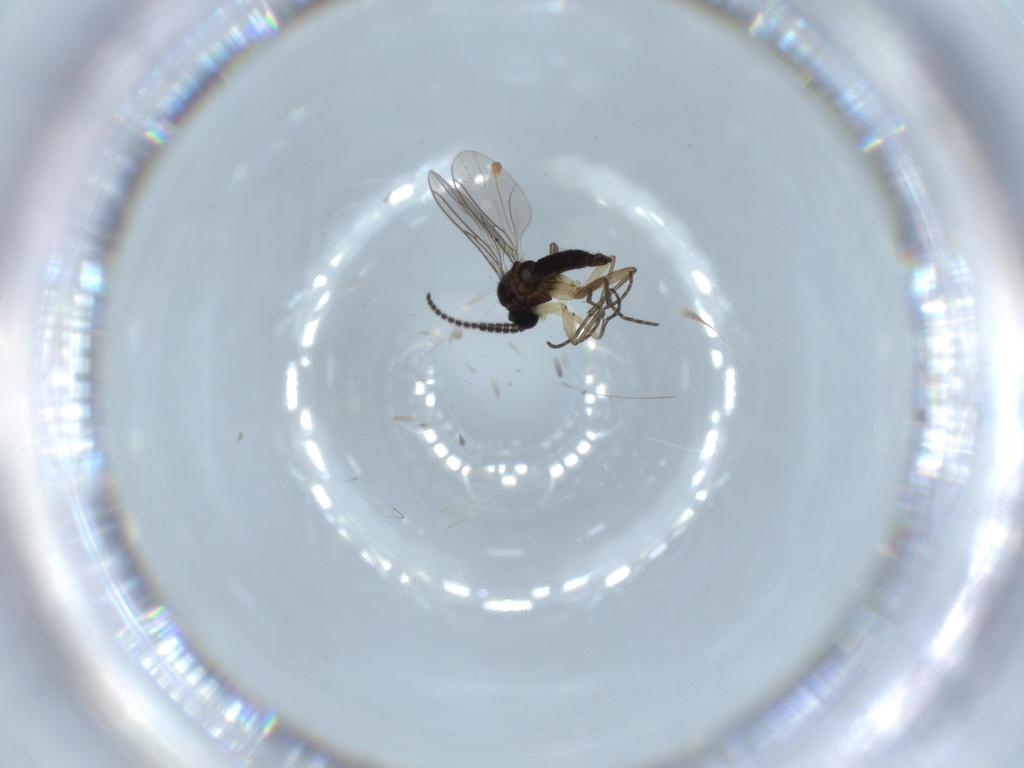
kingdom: Animalia
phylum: Arthropoda
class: Insecta
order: Diptera
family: Sciaridae
